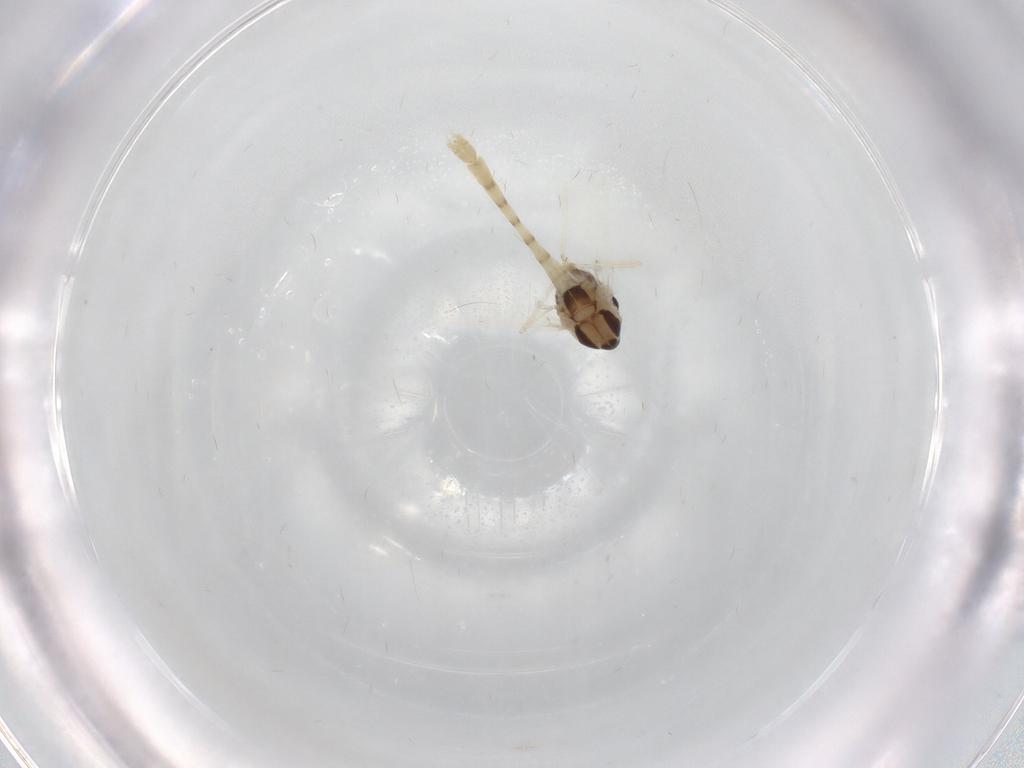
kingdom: Animalia
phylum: Arthropoda
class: Insecta
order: Diptera
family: Chironomidae
